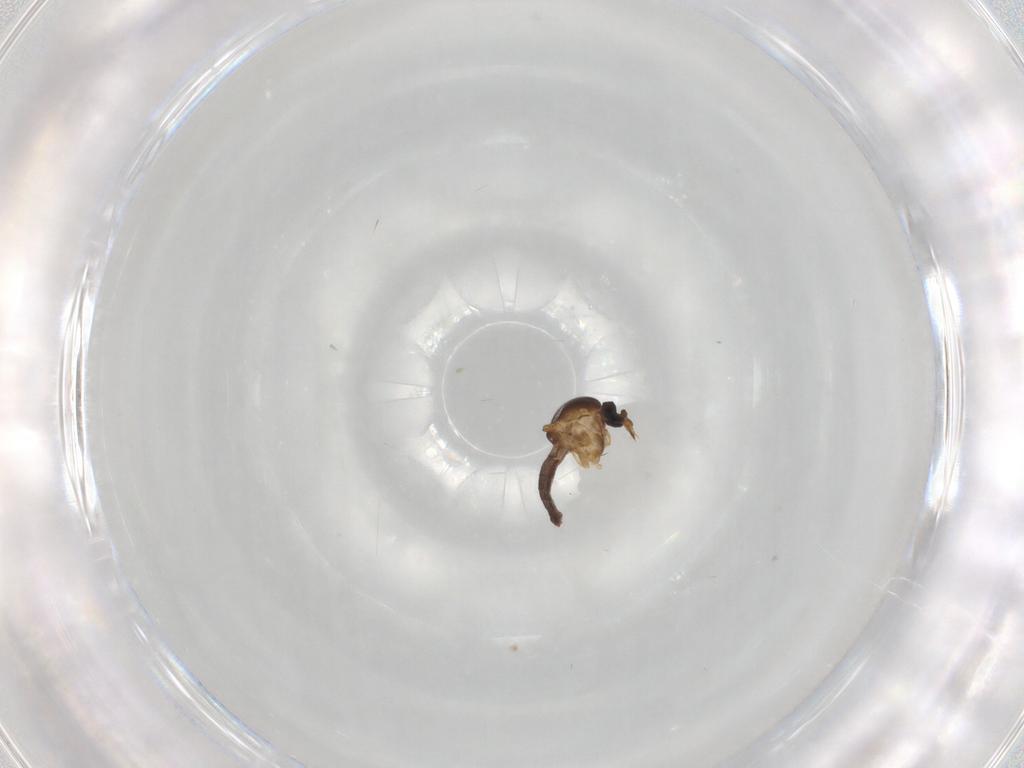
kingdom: Animalia
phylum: Arthropoda
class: Insecta
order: Diptera
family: Ceratopogonidae
